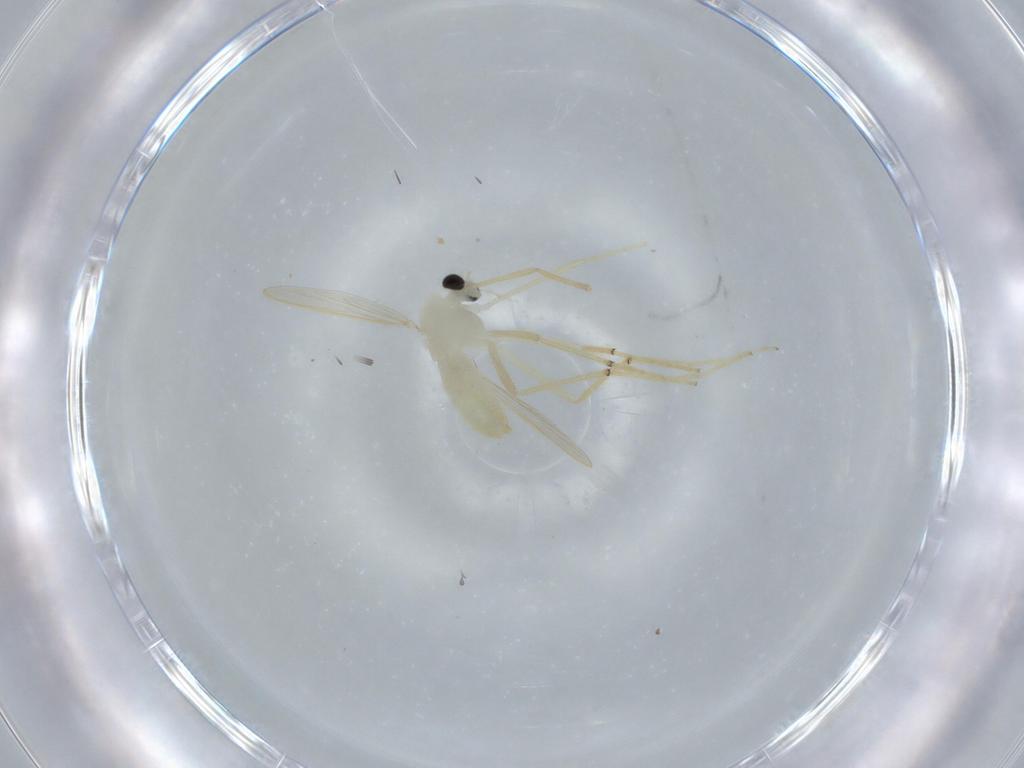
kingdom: Animalia
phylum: Arthropoda
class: Insecta
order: Diptera
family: Chironomidae
